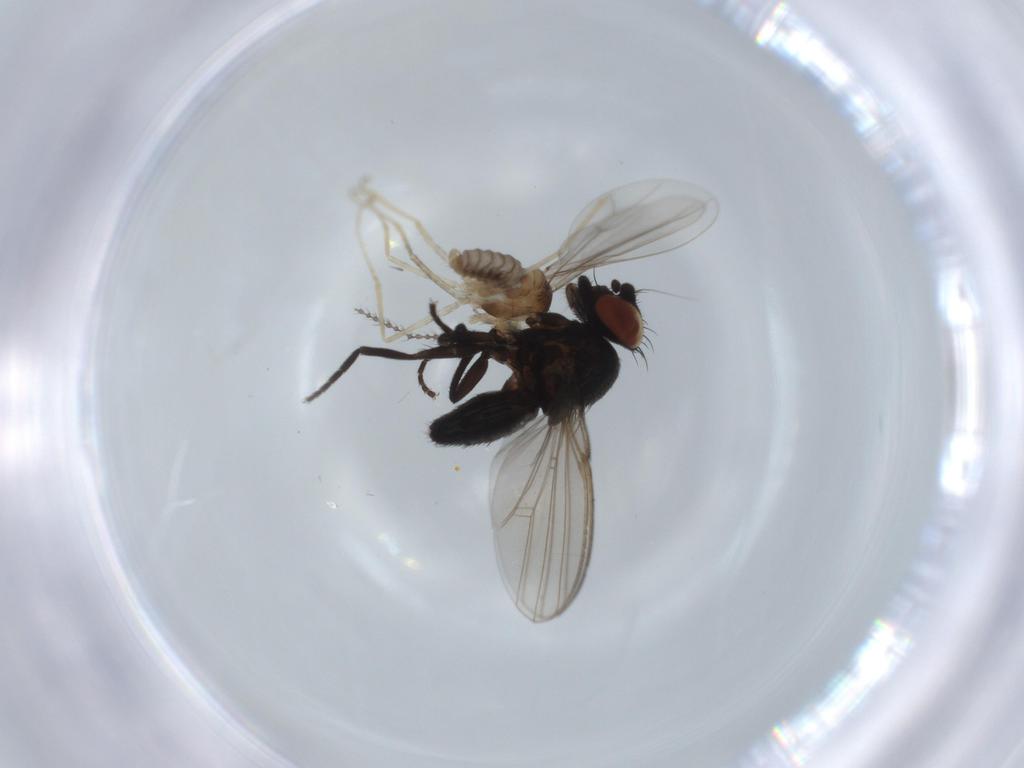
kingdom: Animalia
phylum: Arthropoda
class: Insecta
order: Diptera
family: Milichiidae
